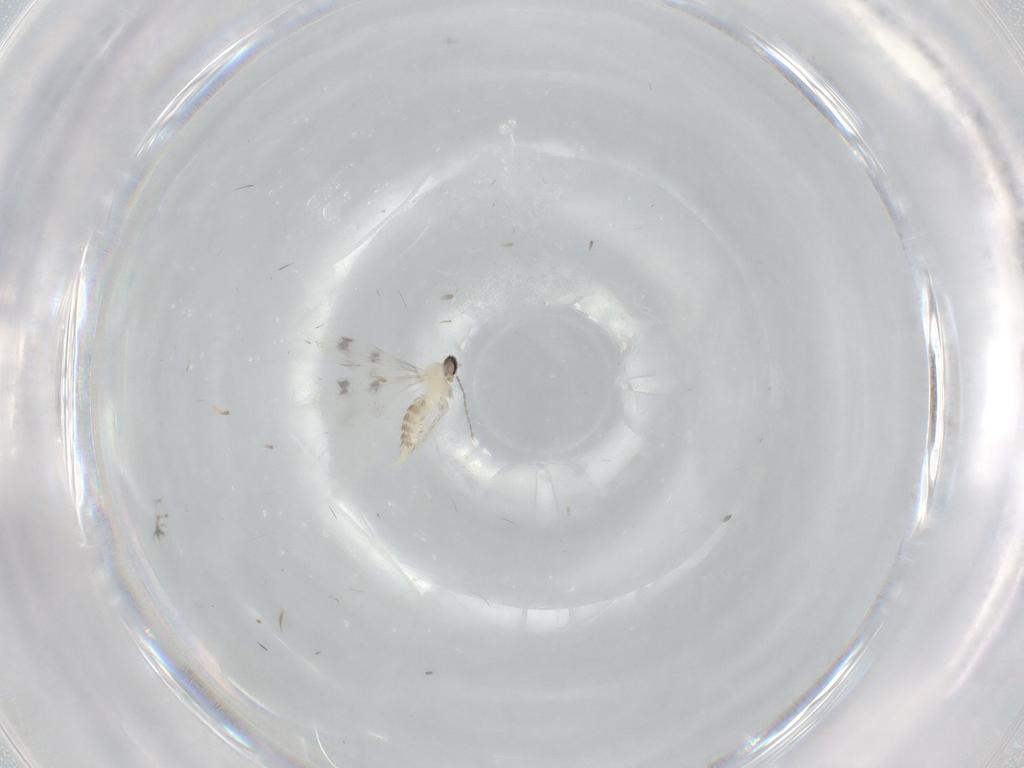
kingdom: Animalia
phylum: Arthropoda
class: Insecta
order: Diptera
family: Cecidomyiidae
